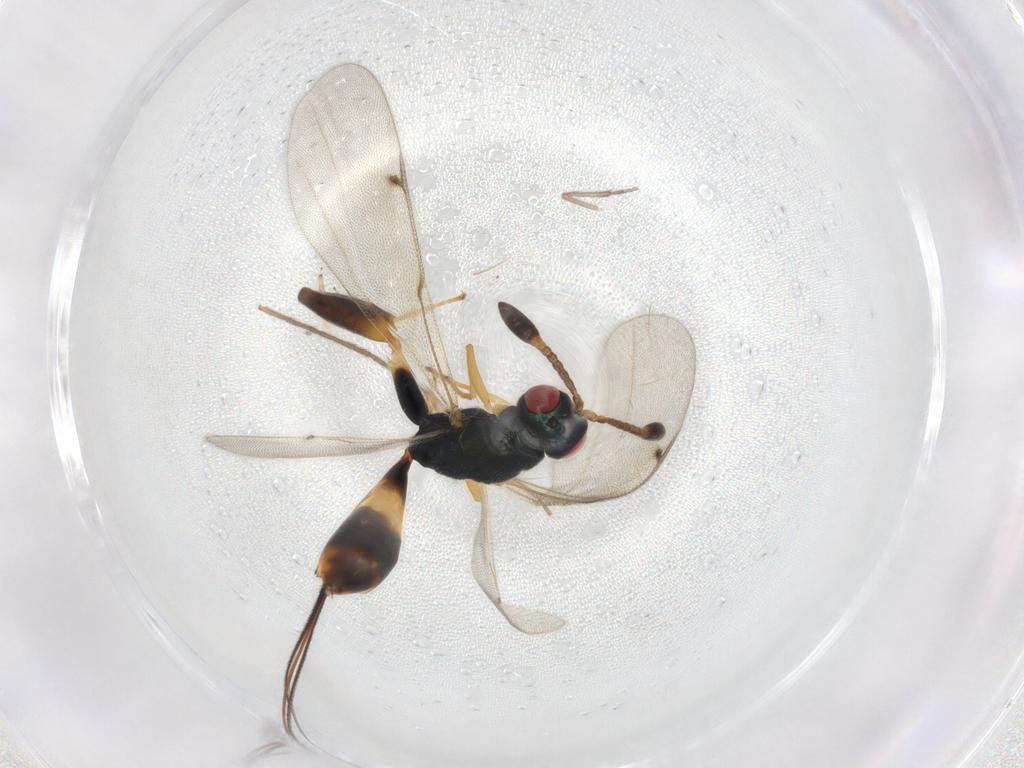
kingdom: Animalia
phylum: Arthropoda
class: Insecta
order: Hymenoptera
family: Torymidae
